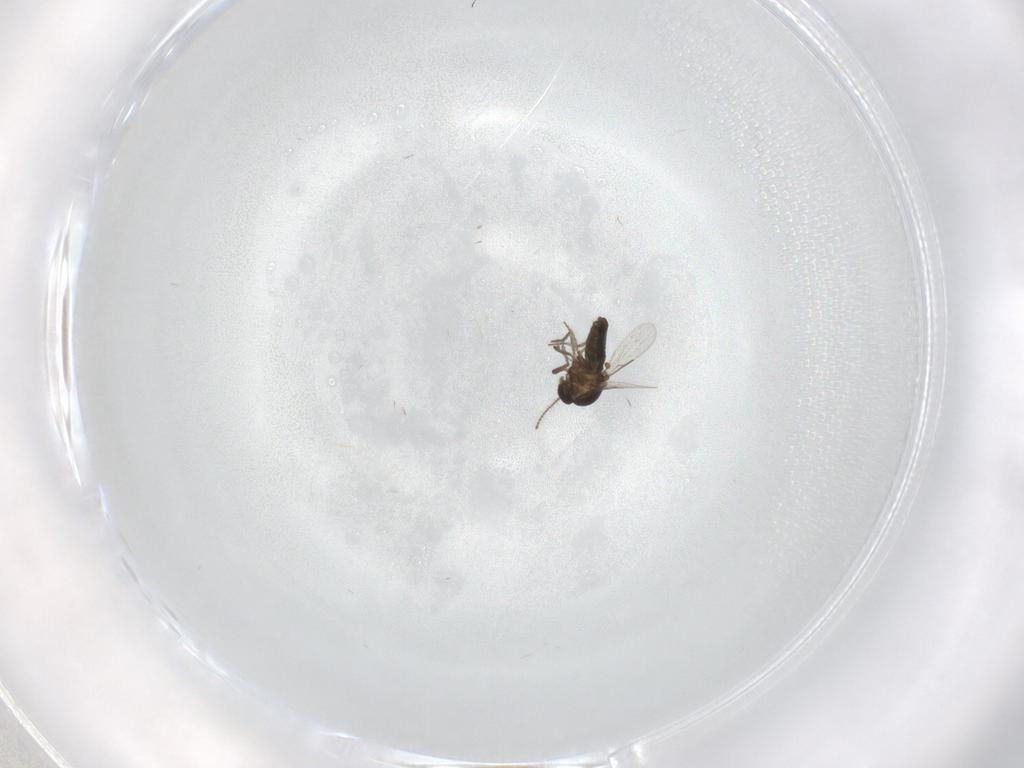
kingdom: Animalia
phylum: Arthropoda
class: Insecta
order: Diptera
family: Ceratopogonidae
